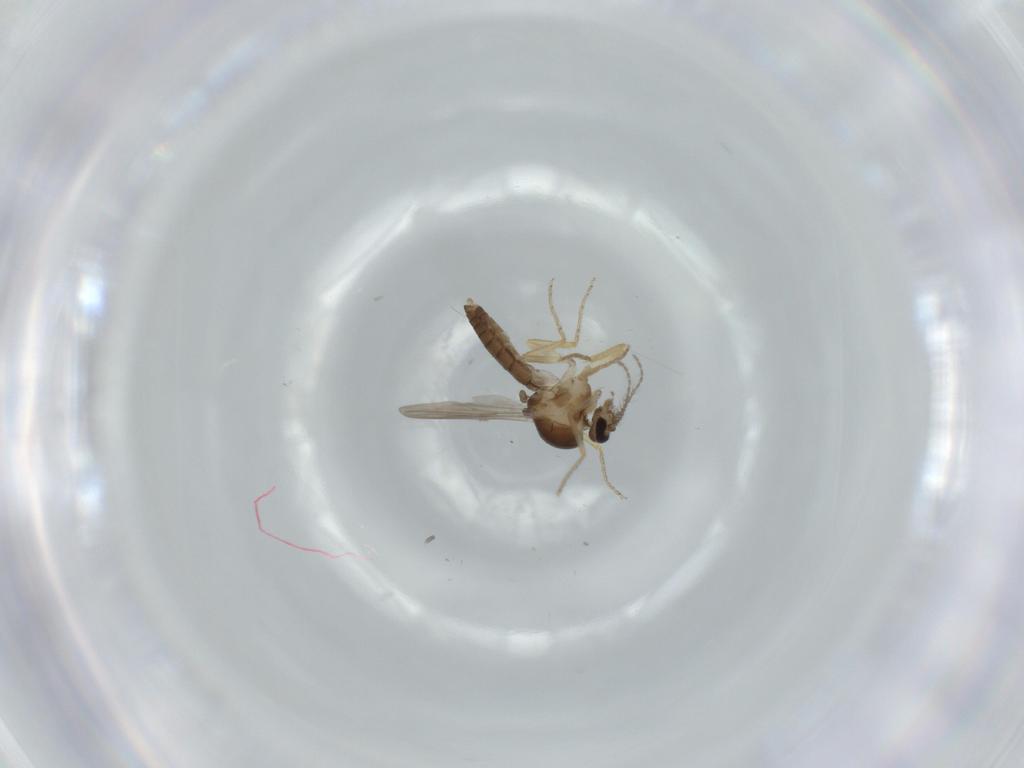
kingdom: Animalia
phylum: Arthropoda
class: Insecta
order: Diptera
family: Ceratopogonidae
